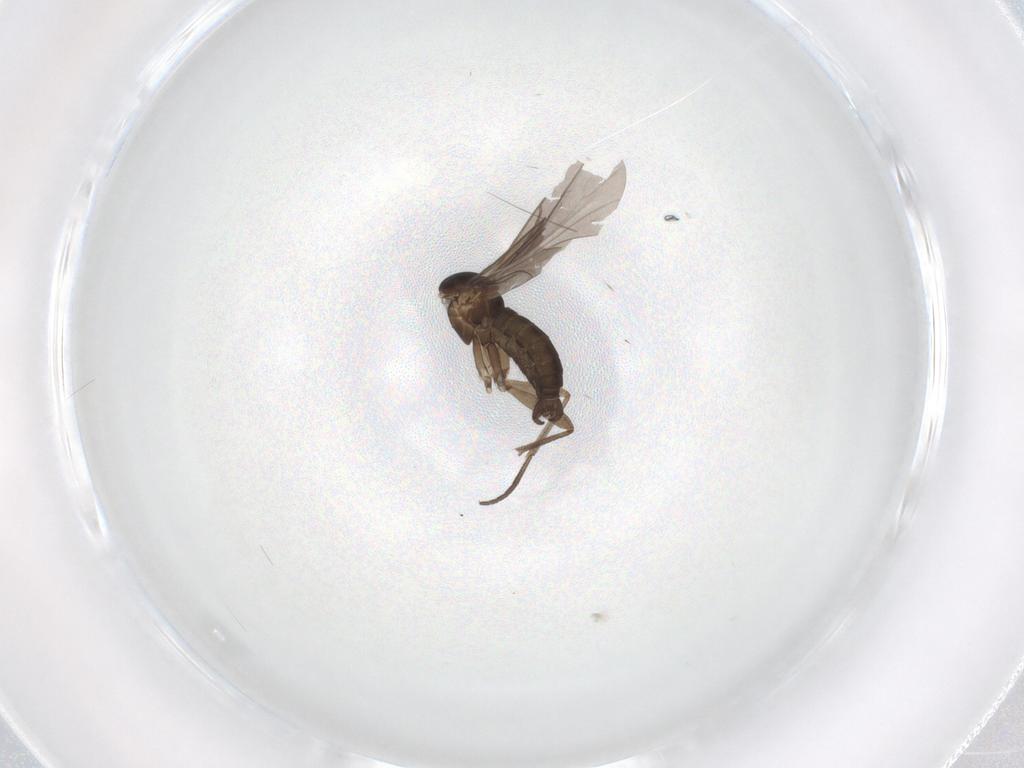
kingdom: Animalia
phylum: Arthropoda
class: Insecta
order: Diptera
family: Sciaridae
